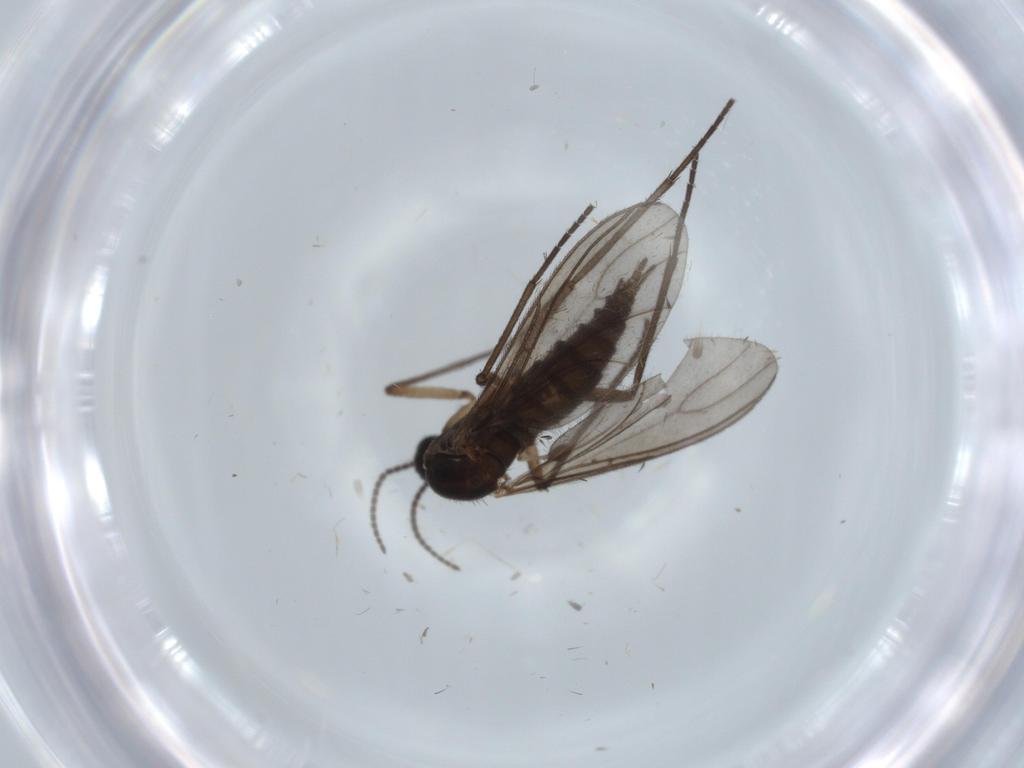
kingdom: Animalia
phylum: Arthropoda
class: Insecta
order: Diptera
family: Sciaridae
